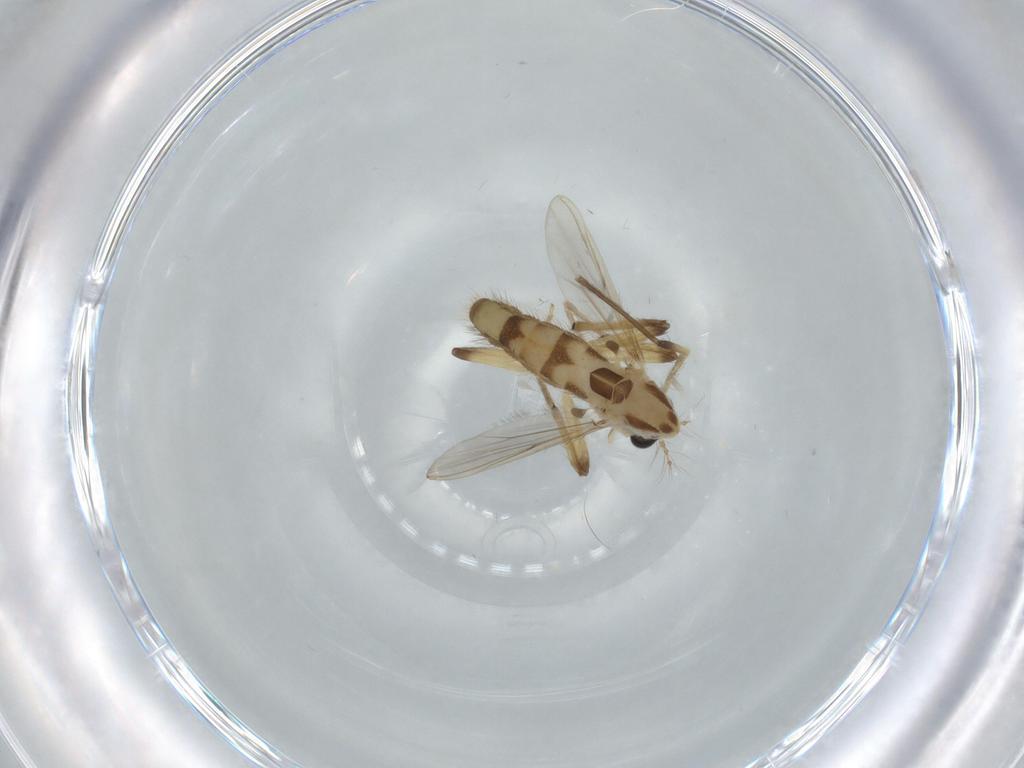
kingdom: Animalia
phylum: Arthropoda
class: Insecta
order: Diptera
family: Chironomidae
